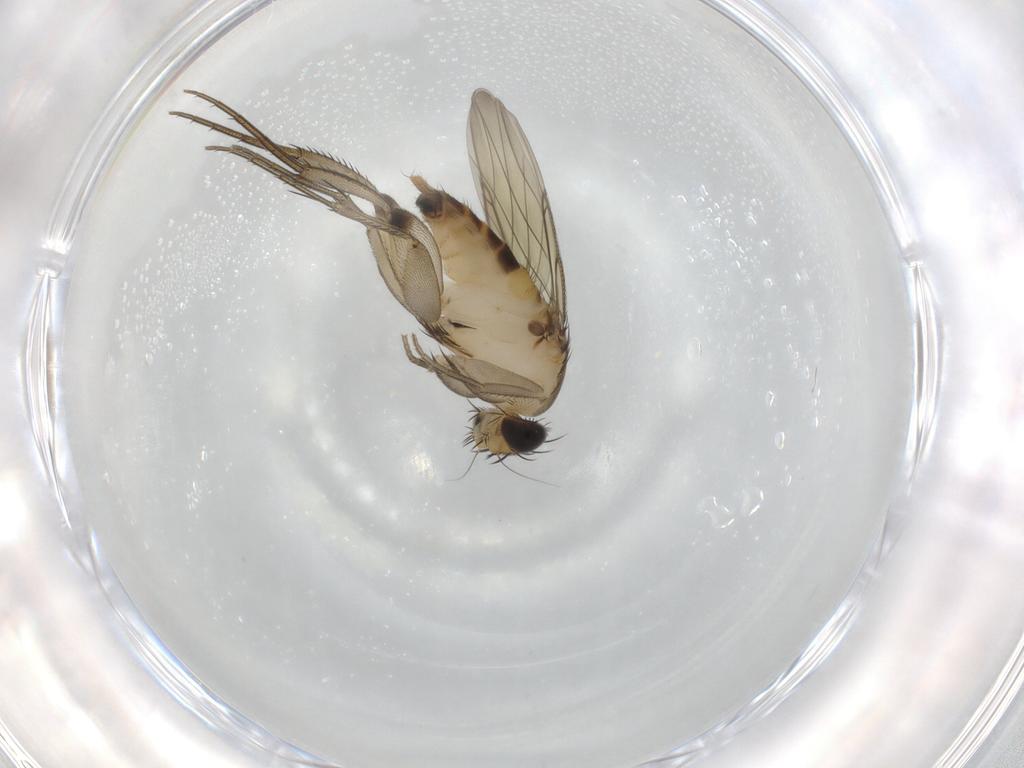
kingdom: Animalia
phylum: Arthropoda
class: Insecta
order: Diptera
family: Phoridae
